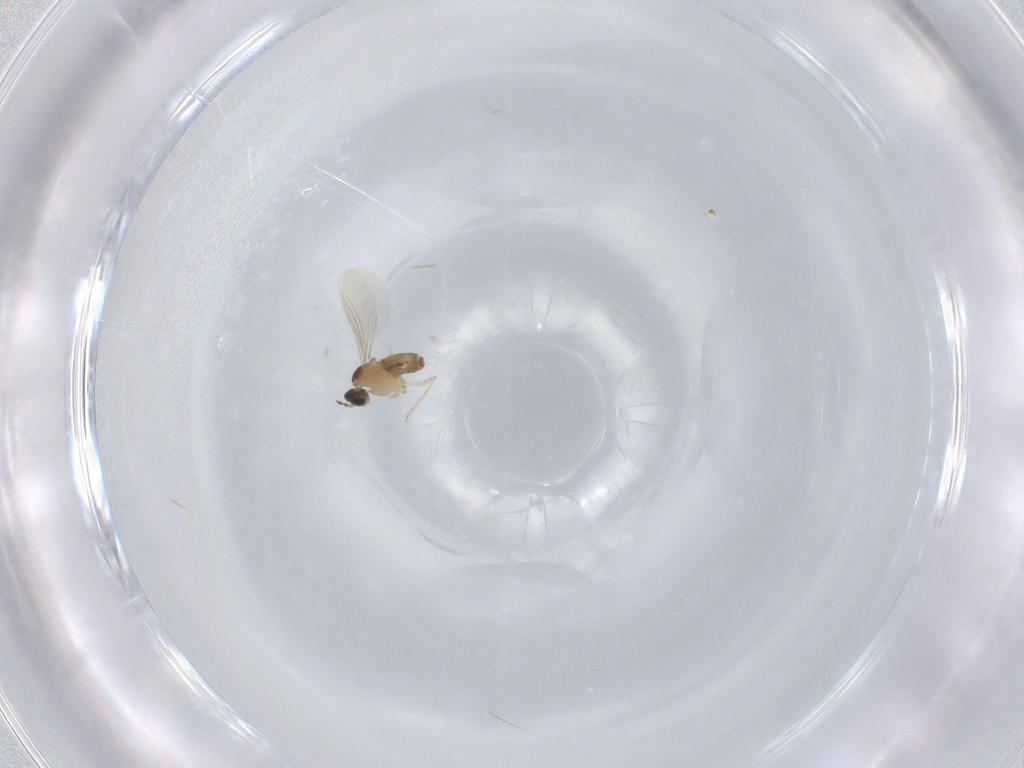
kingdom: Animalia
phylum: Arthropoda
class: Insecta
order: Diptera
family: Cecidomyiidae
